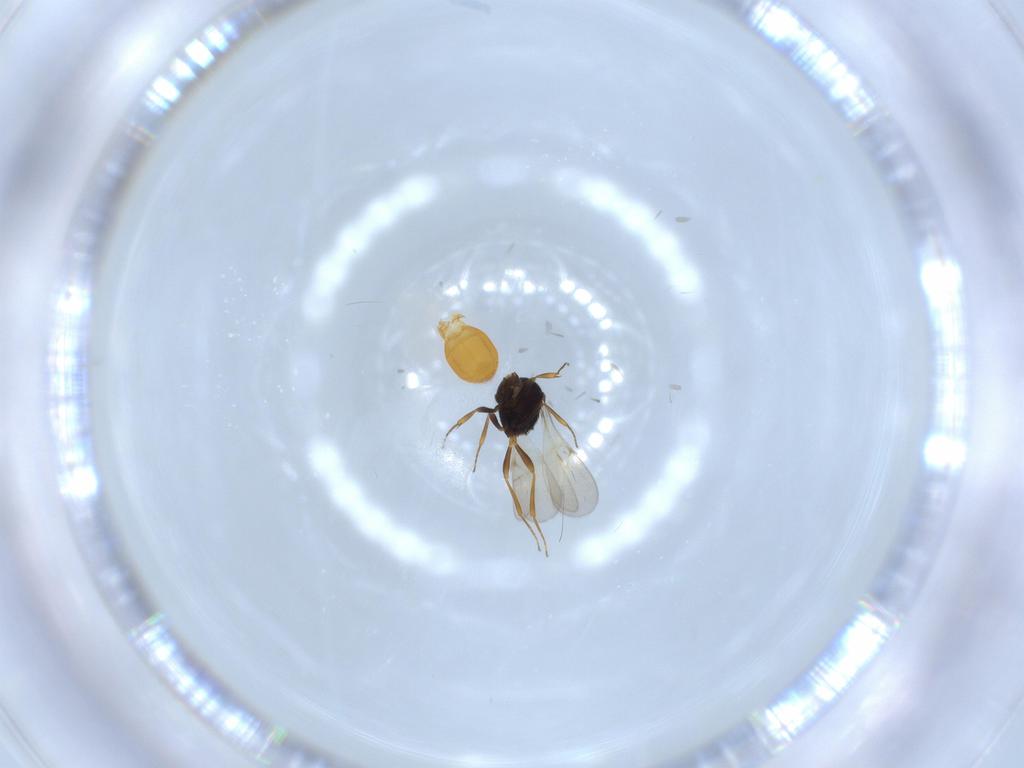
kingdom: Animalia
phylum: Arthropoda
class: Insecta
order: Hymenoptera
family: Scelionidae
